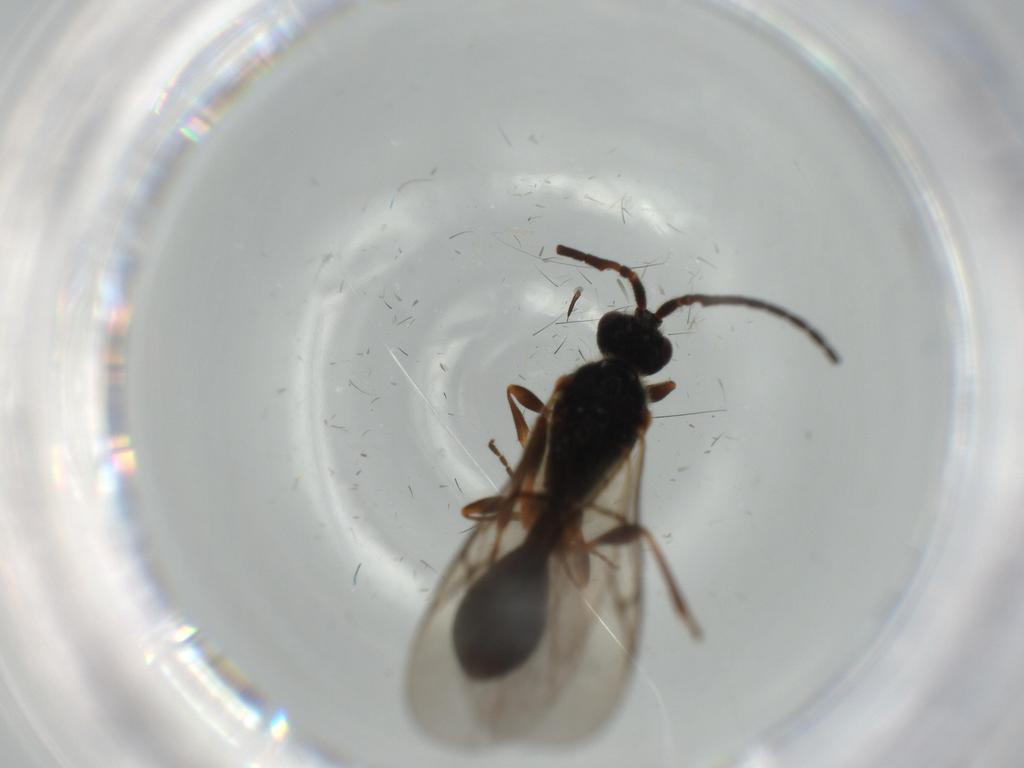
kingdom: Animalia
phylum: Arthropoda
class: Insecta
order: Hymenoptera
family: Diapriidae
